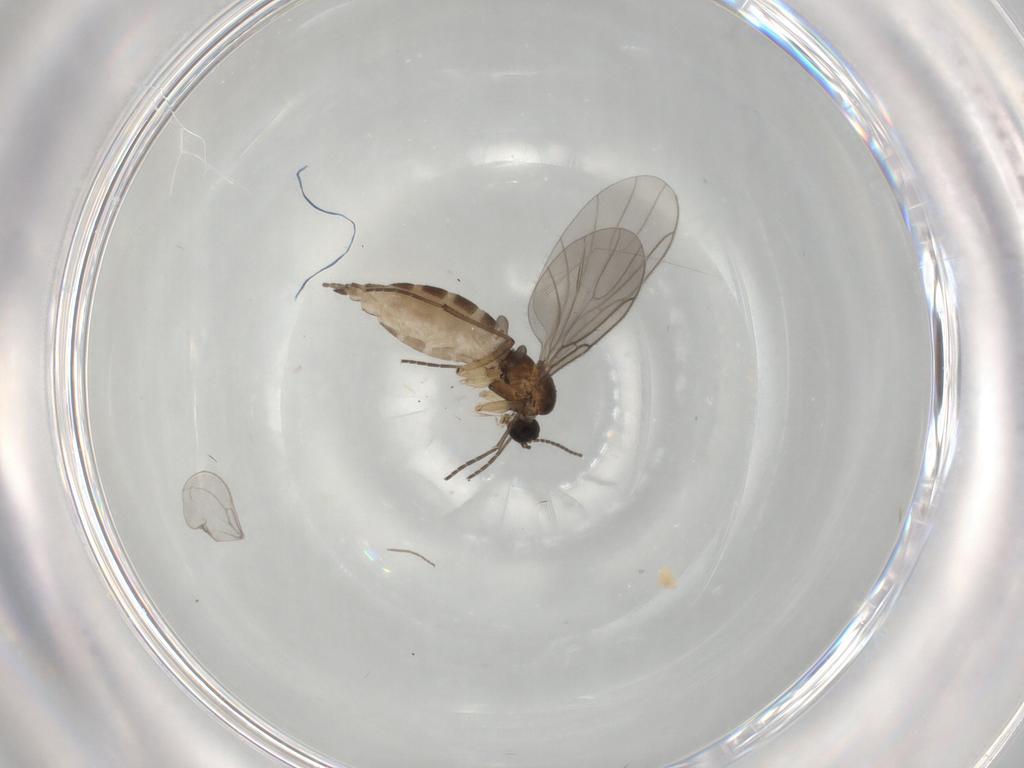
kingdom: Animalia
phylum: Arthropoda
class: Insecta
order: Diptera
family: Sciaridae
